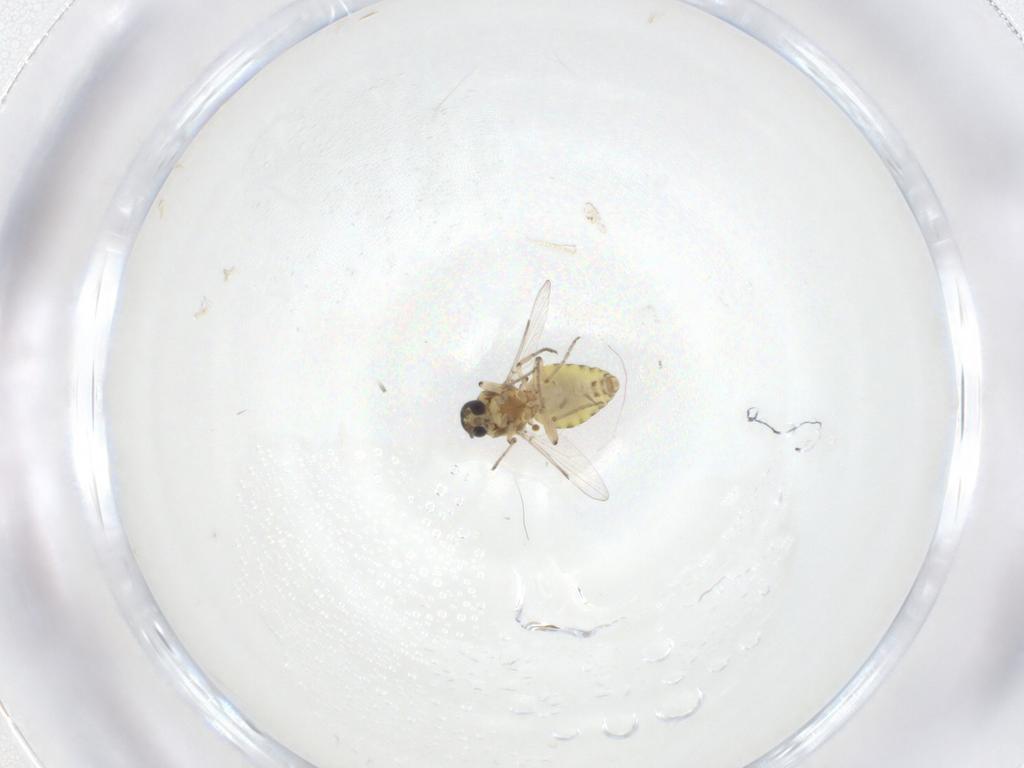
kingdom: Animalia
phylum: Arthropoda
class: Insecta
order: Diptera
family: Ceratopogonidae
